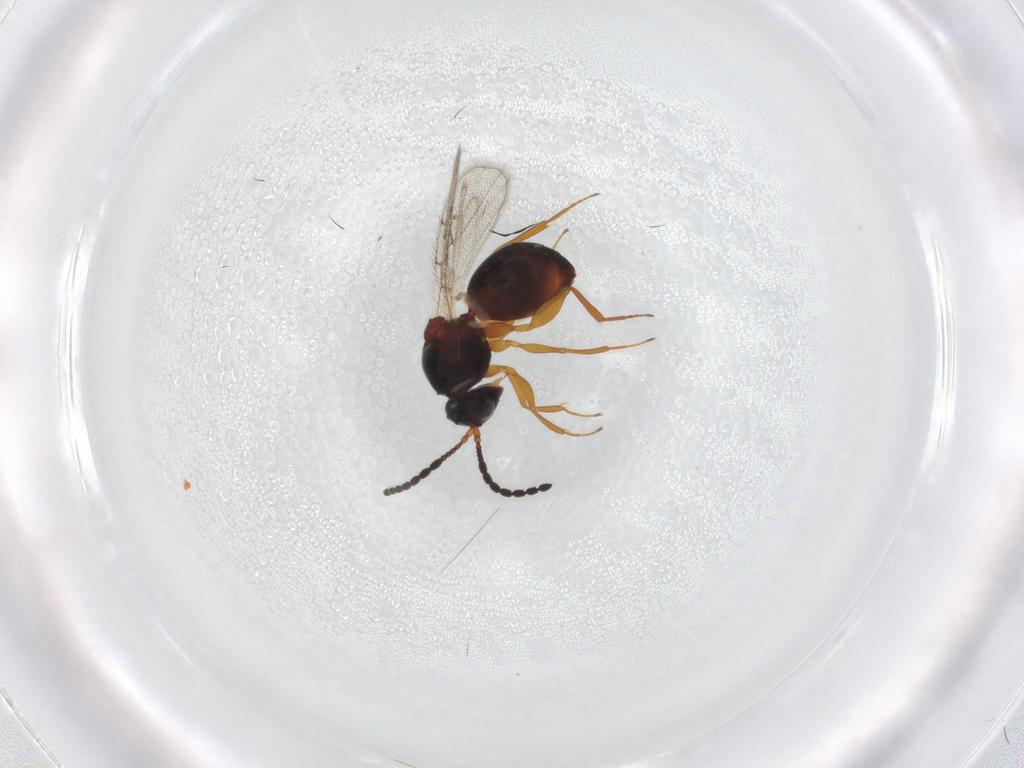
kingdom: Animalia
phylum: Arthropoda
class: Insecta
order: Hymenoptera
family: Figitidae
